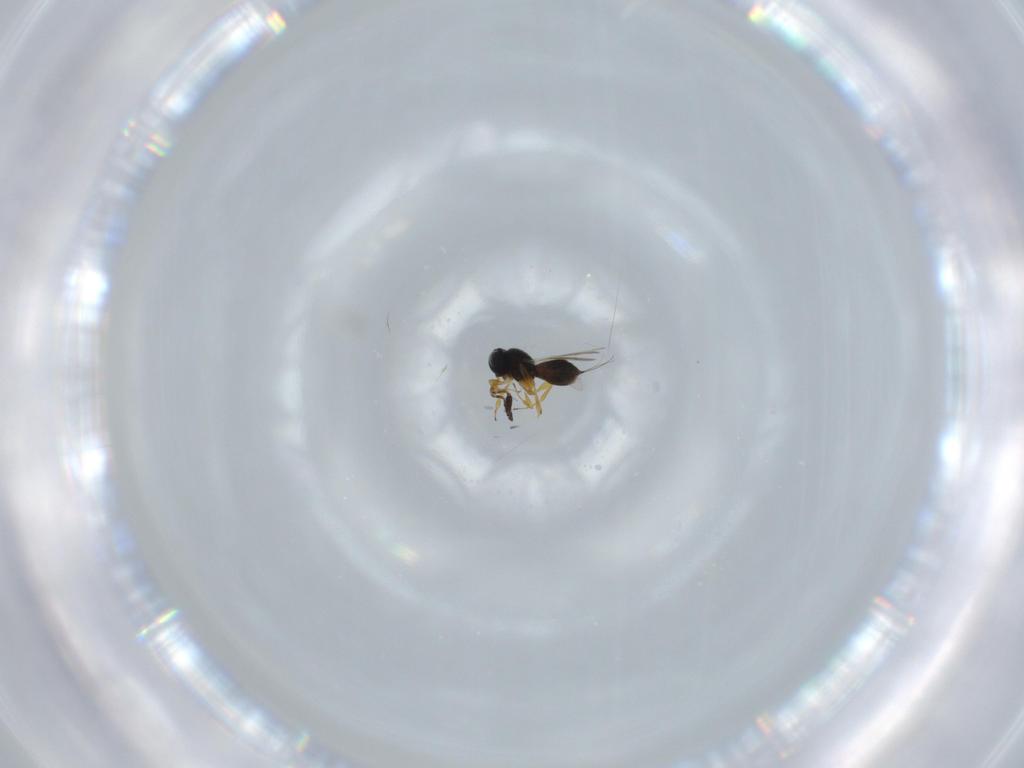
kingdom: Animalia
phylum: Arthropoda
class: Insecta
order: Hymenoptera
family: Scelionidae
